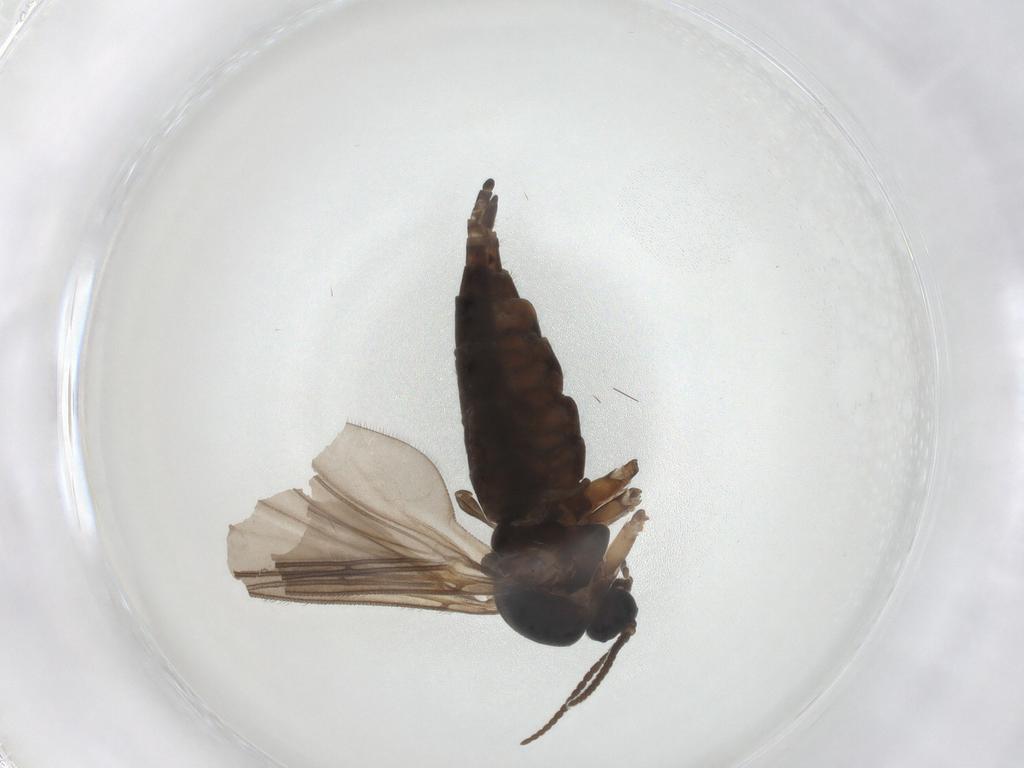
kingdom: Animalia
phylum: Arthropoda
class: Insecta
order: Diptera
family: Sciaridae
